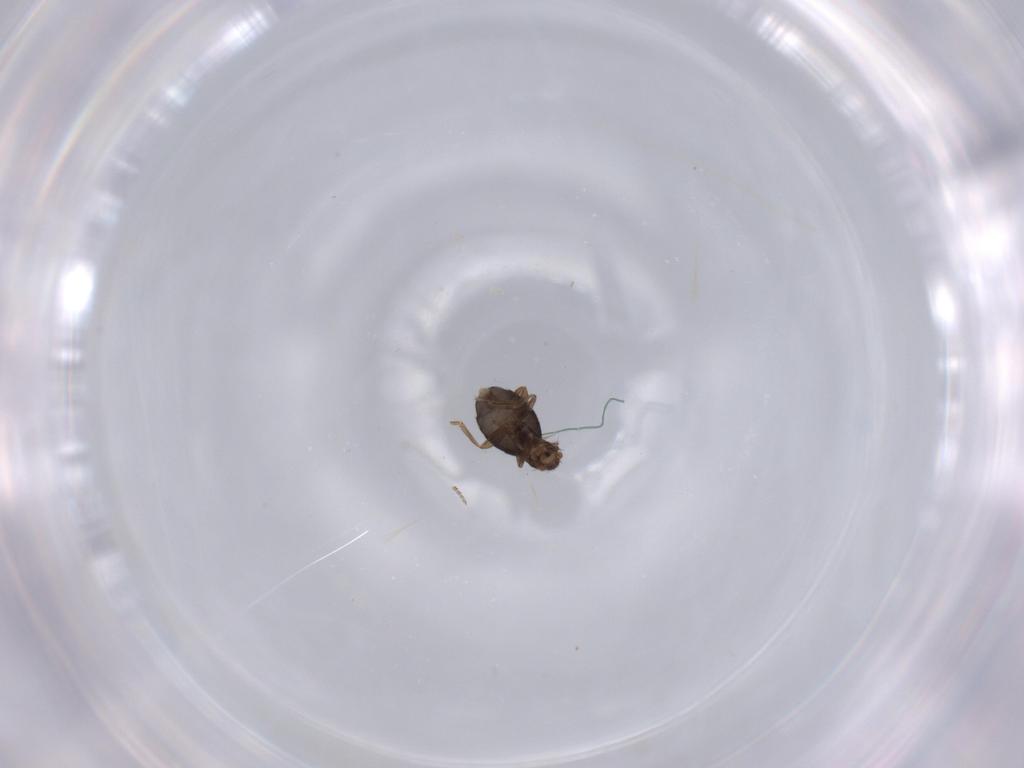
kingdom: Animalia
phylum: Arthropoda
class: Insecta
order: Diptera
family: Phoridae
